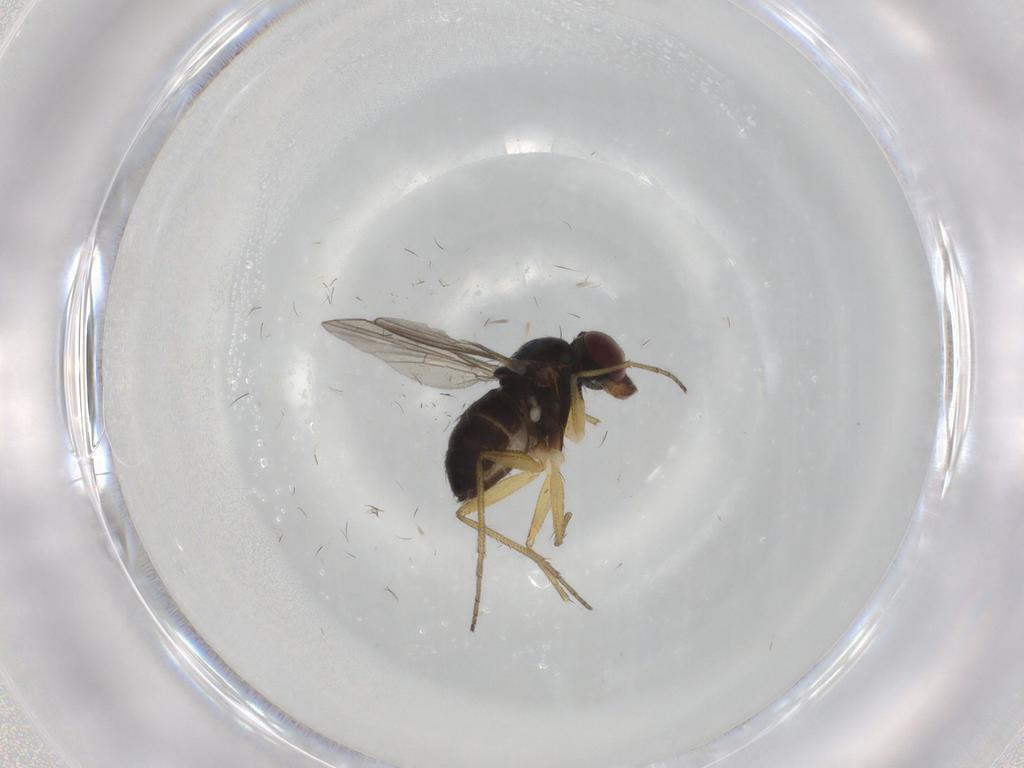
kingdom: Animalia
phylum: Arthropoda
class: Insecta
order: Diptera
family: Dolichopodidae
